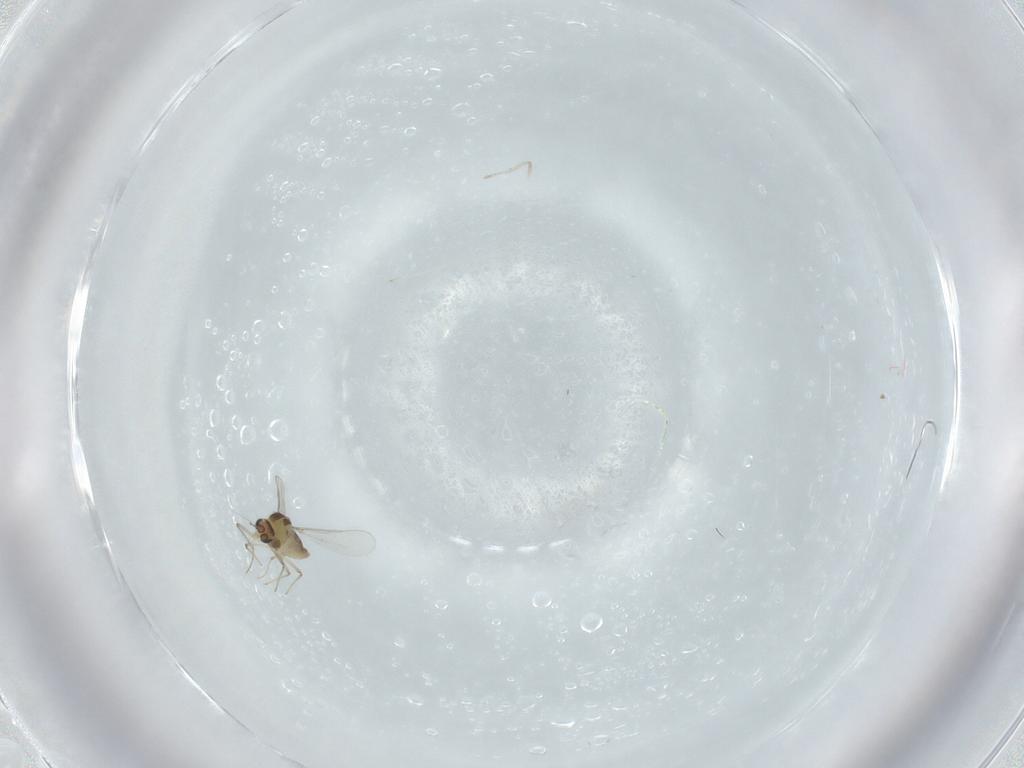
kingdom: Animalia
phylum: Arthropoda
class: Insecta
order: Diptera
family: Chironomidae
